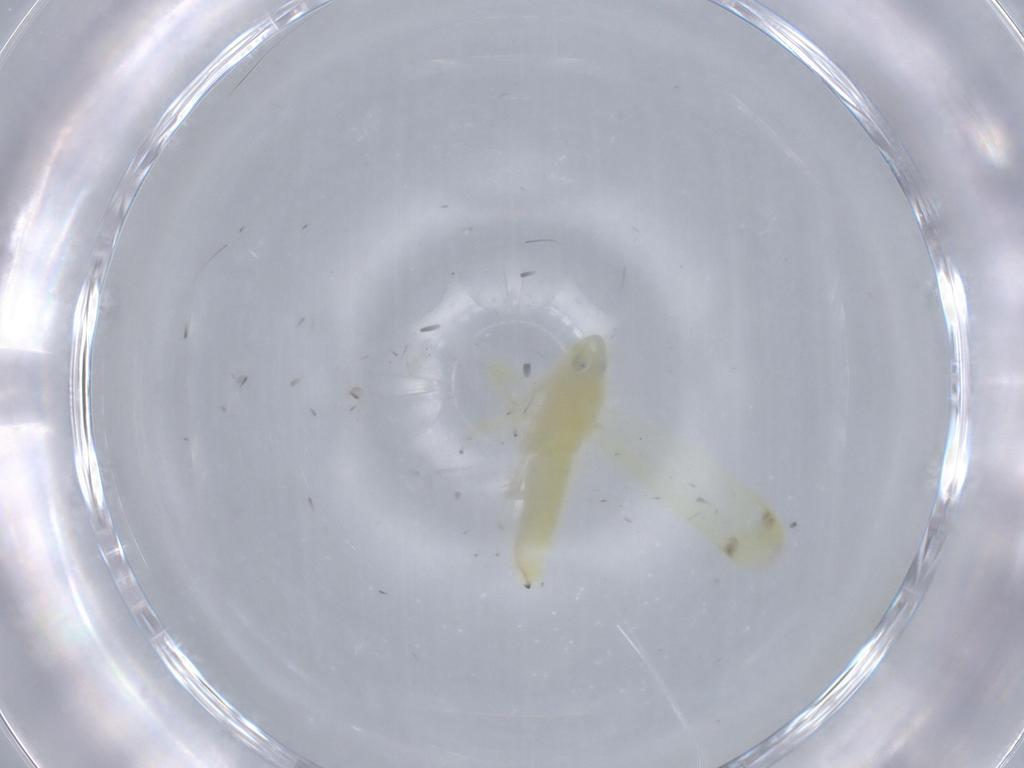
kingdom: Animalia
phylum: Arthropoda
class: Insecta
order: Hemiptera
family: Cicadellidae
